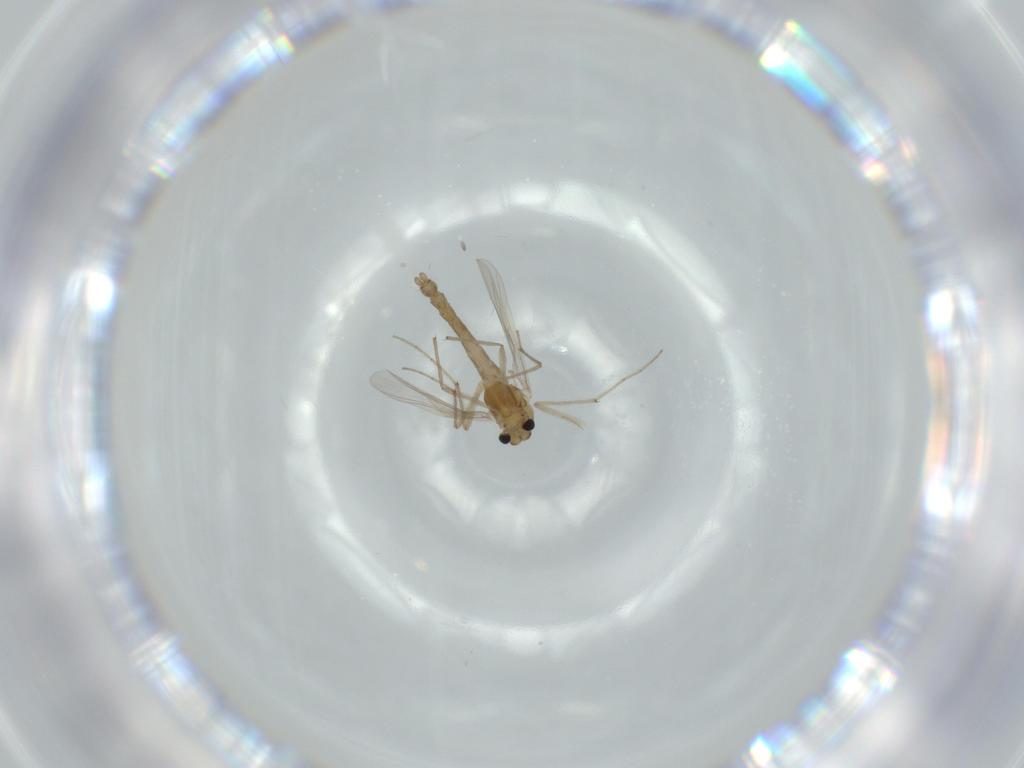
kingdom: Animalia
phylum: Arthropoda
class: Insecta
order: Diptera
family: Chironomidae
